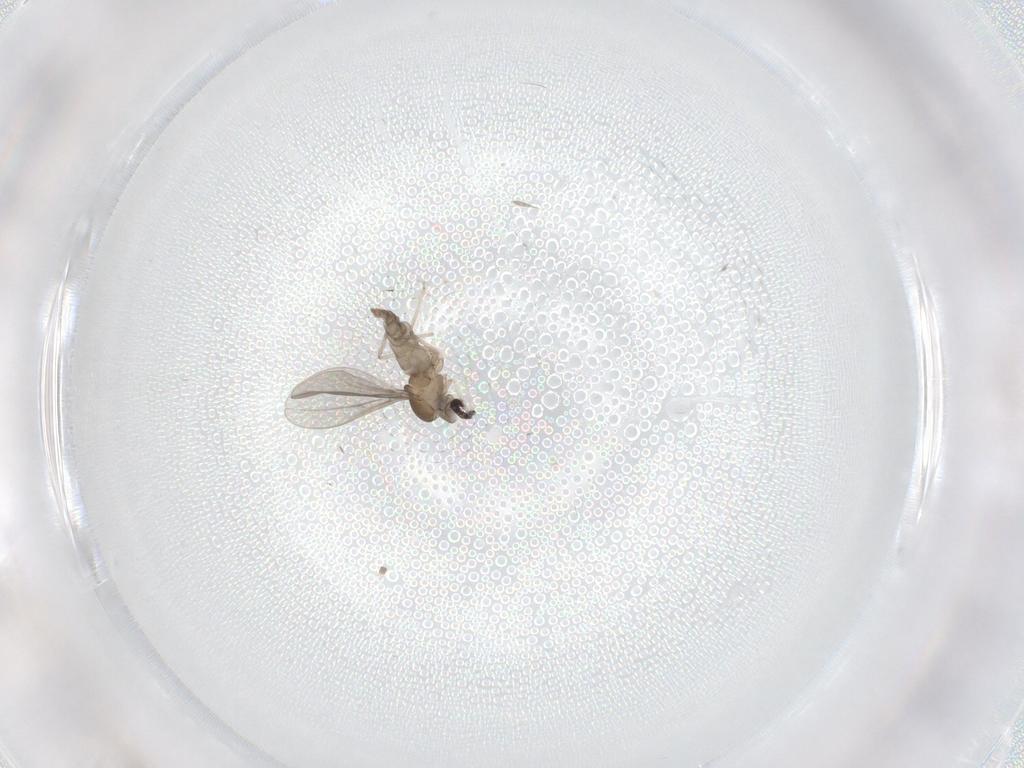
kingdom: Animalia
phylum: Arthropoda
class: Insecta
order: Diptera
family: Cecidomyiidae
